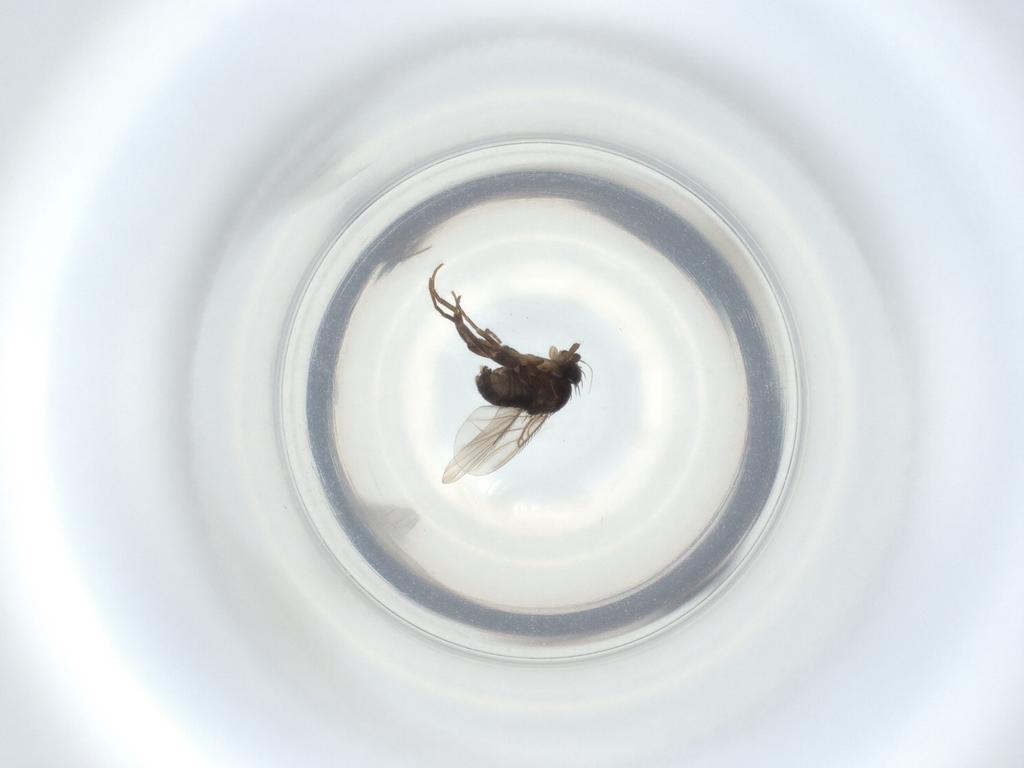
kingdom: Animalia
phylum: Arthropoda
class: Insecta
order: Diptera
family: Phoridae
